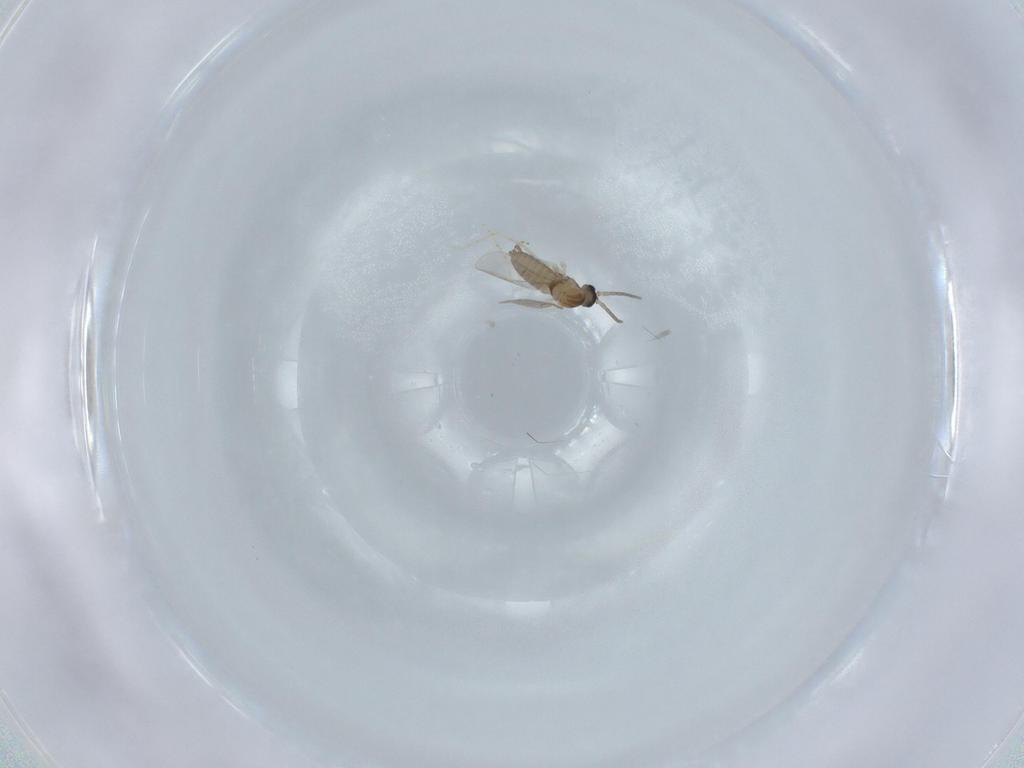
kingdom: Animalia
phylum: Arthropoda
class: Insecta
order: Diptera
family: Cecidomyiidae
